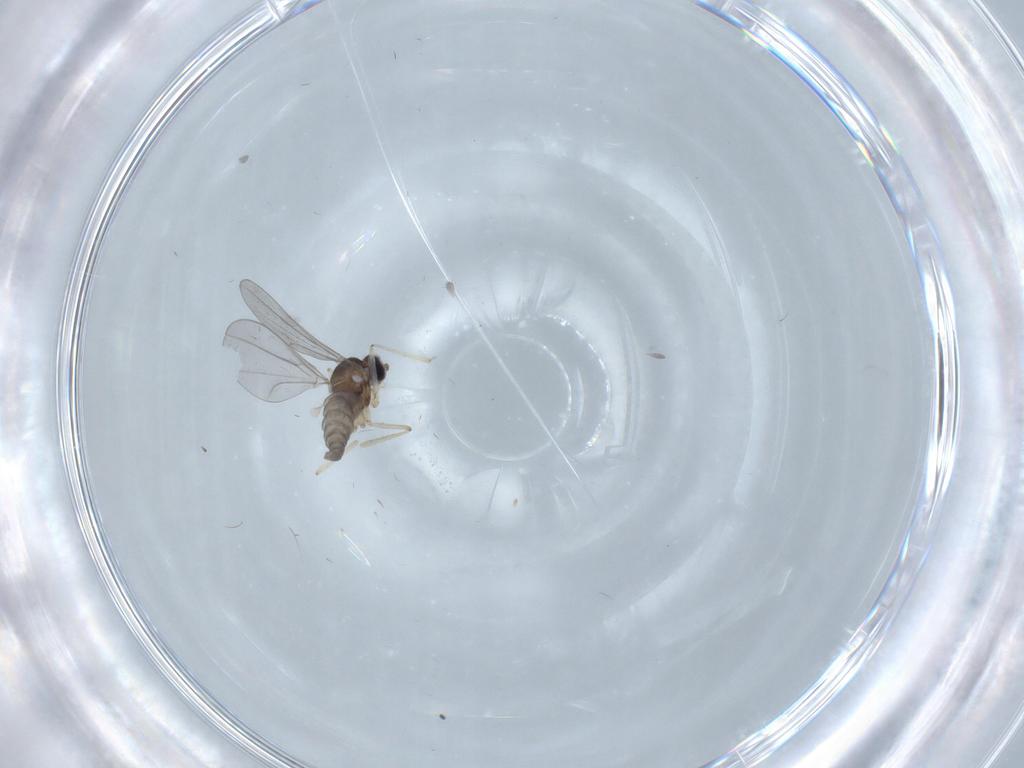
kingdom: Animalia
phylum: Arthropoda
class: Insecta
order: Diptera
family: Cecidomyiidae
